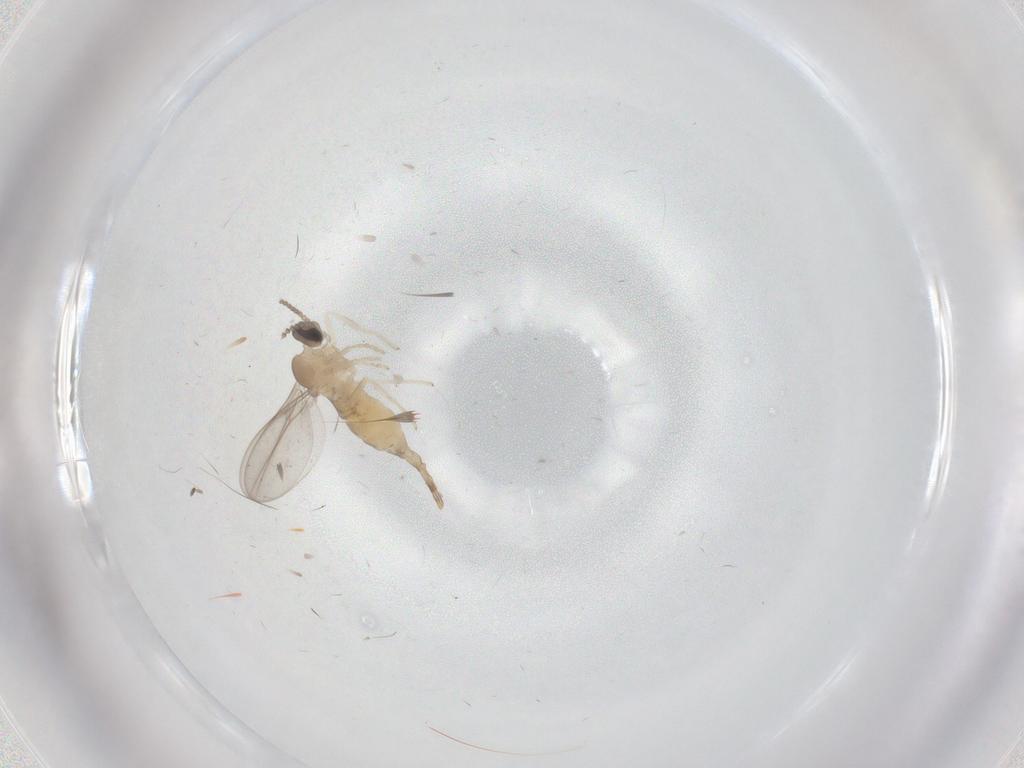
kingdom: Animalia
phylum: Arthropoda
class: Insecta
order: Diptera
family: Cecidomyiidae
